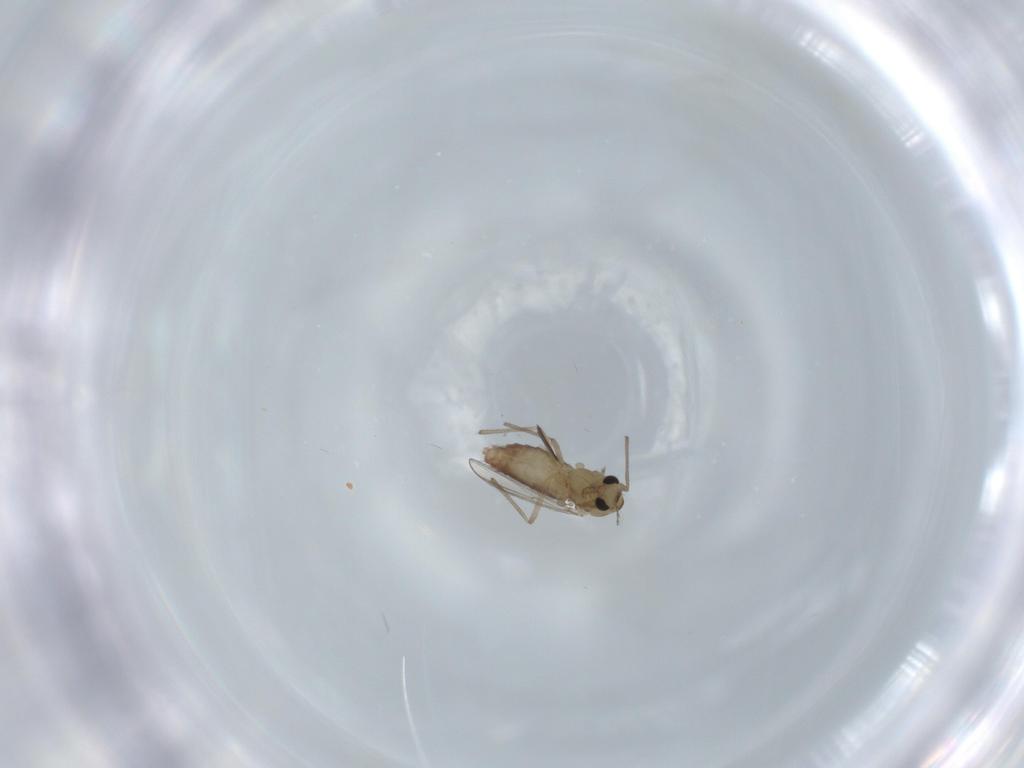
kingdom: Animalia
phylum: Arthropoda
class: Insecta
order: Diptera
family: Chironomidae
